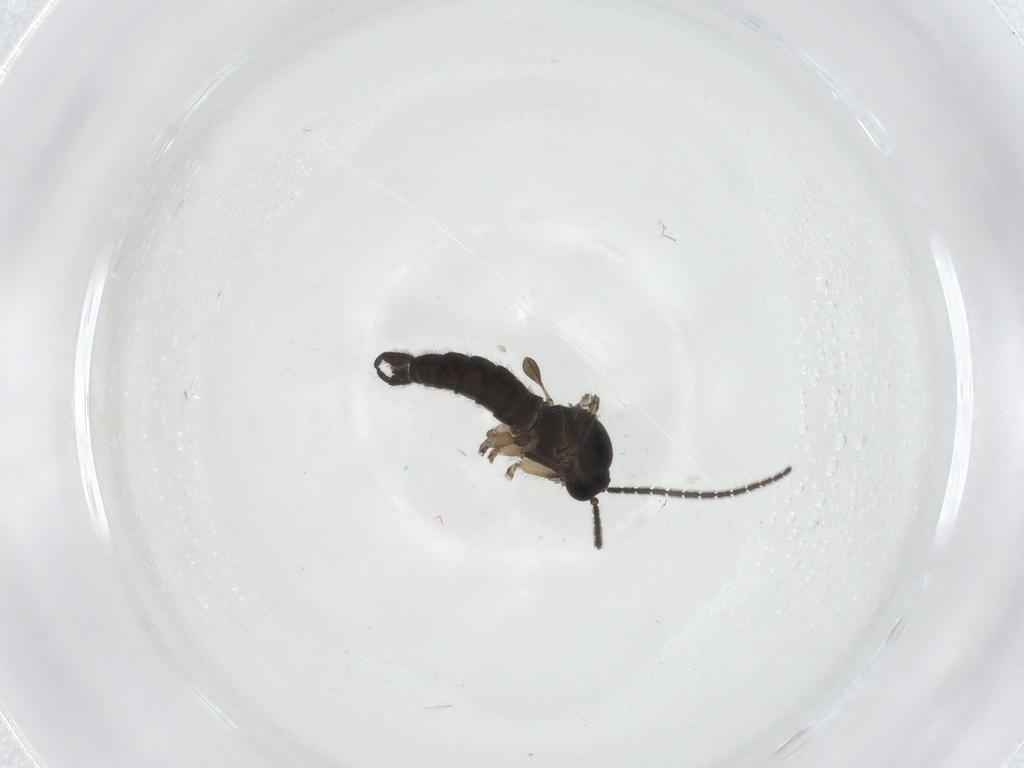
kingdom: Animalia
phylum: Arthropoda
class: Insecta
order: Diptera
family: Sciaridae
